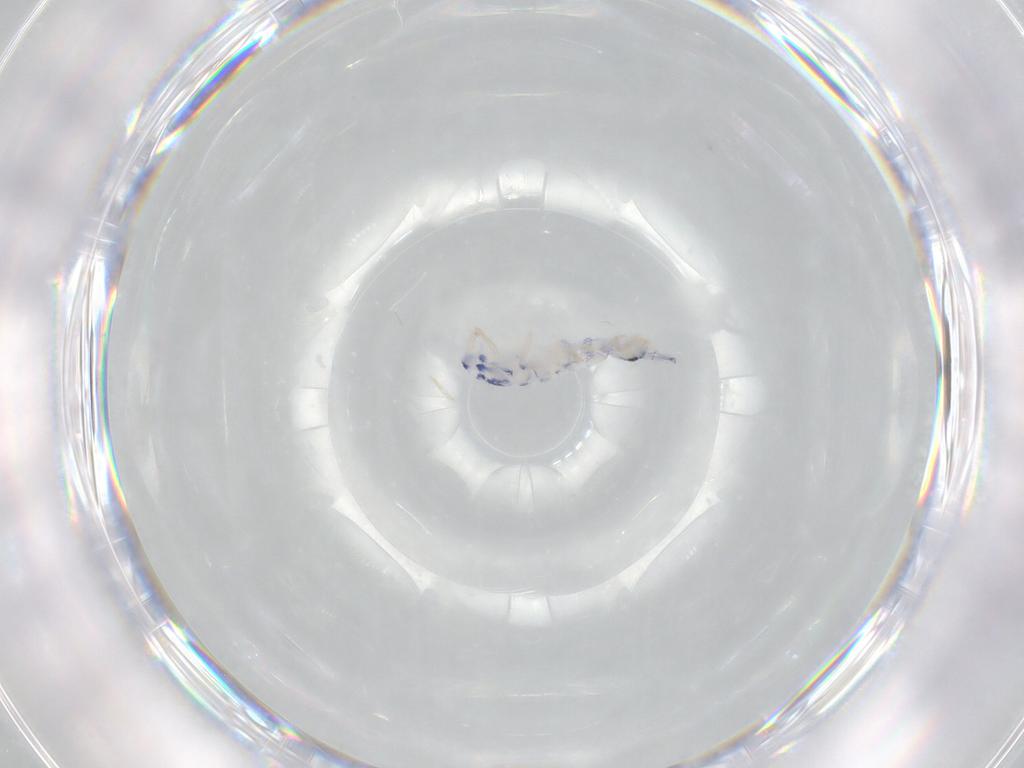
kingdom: Animalia
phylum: Arthropoda
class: Collembola
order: Entomobryomorpha
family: Entomobryidae
